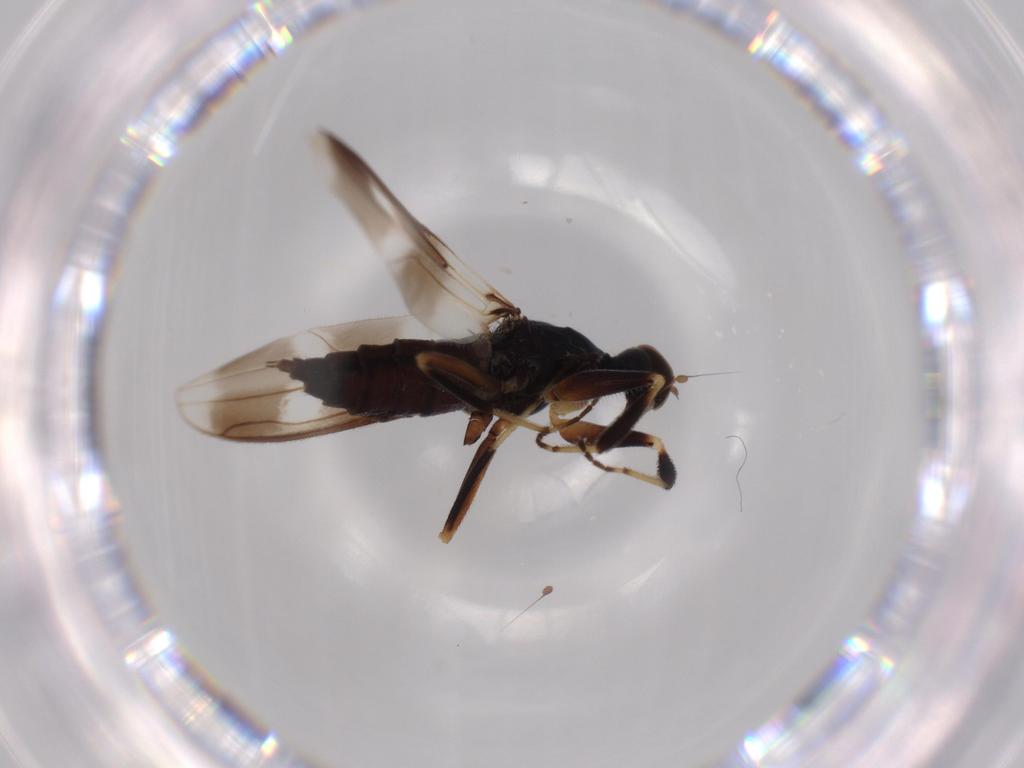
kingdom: Animalia
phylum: Arthropoda
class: Insecta
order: Diptera
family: Hybotidae
